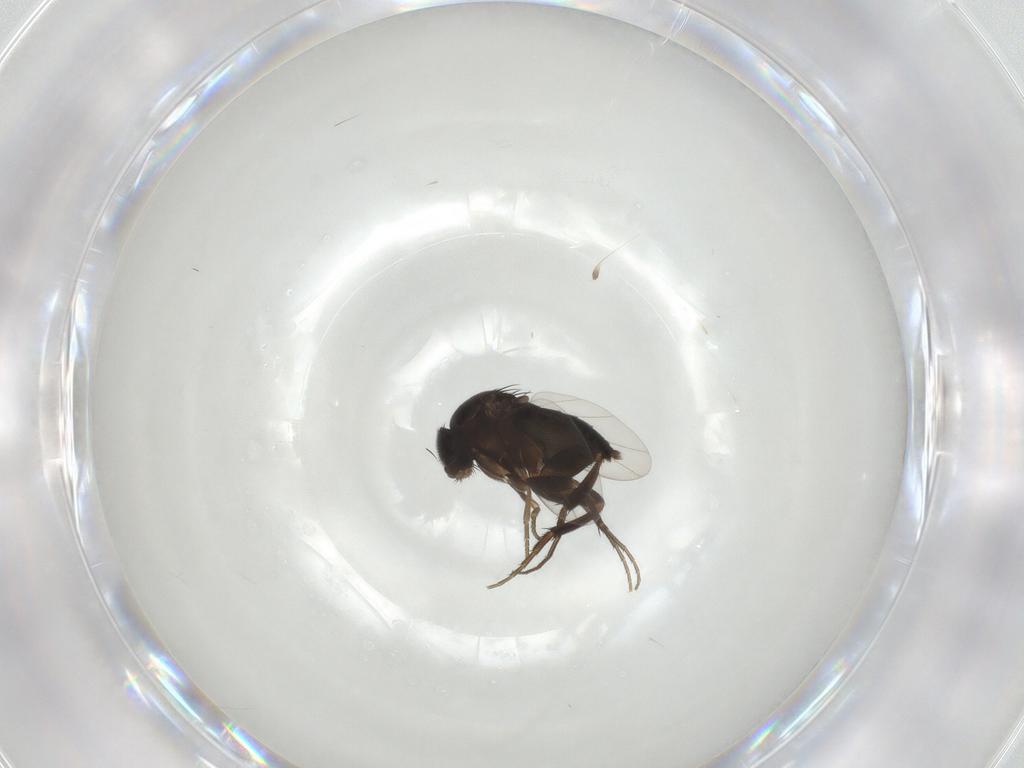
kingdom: Animalia
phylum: Arthropoda
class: Insecta
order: Diptera
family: Phoridae
